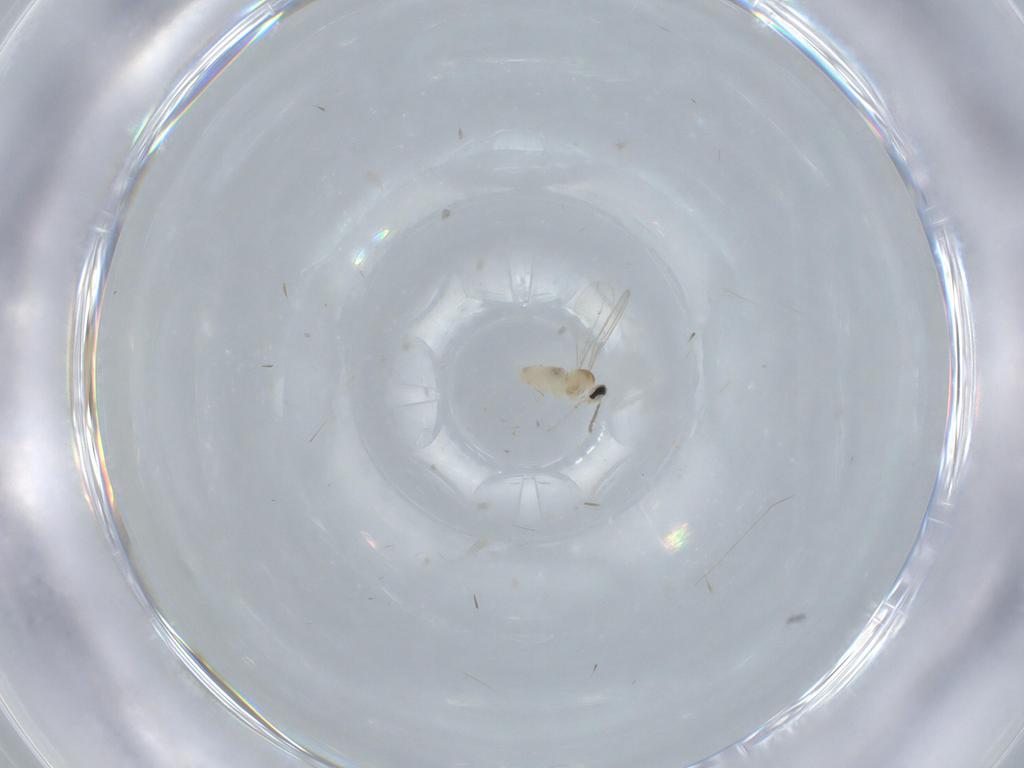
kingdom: Animalia
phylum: Arthropoda
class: Insecta
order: Diptera
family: Cecidomyiidae
